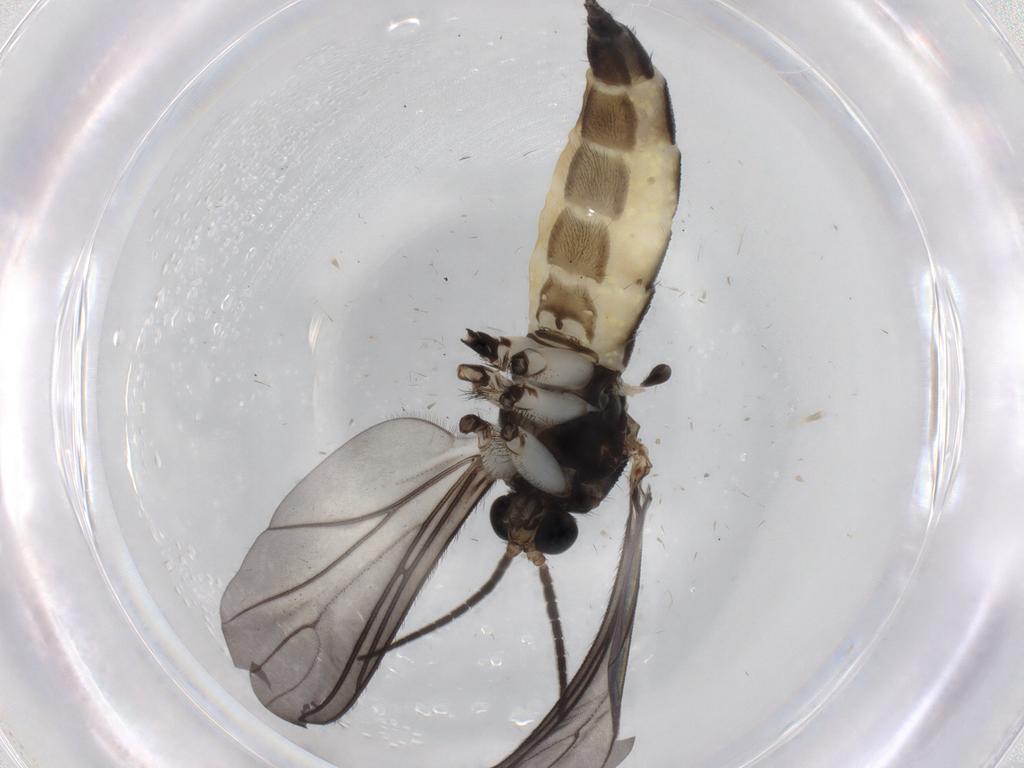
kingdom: Animalia
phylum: Arthropoda
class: Insecta
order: Diptera
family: Sciaridae
